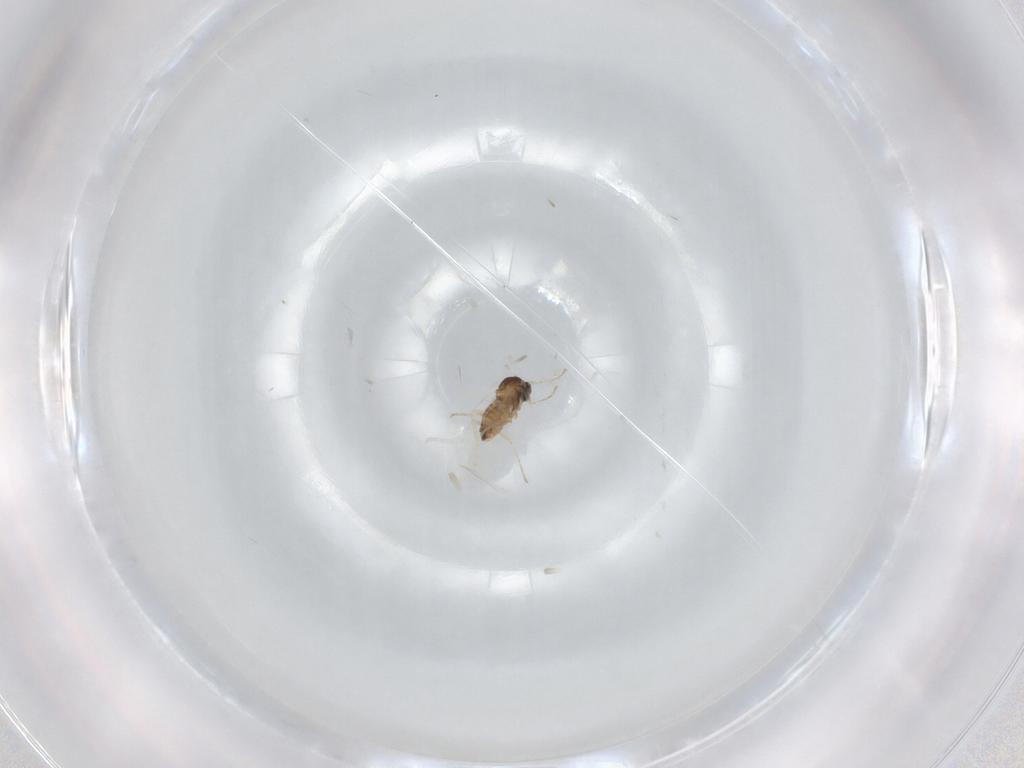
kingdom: Animalia
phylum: Arthropoda
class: Insecta
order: Diptera
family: Cecidomyiidae
